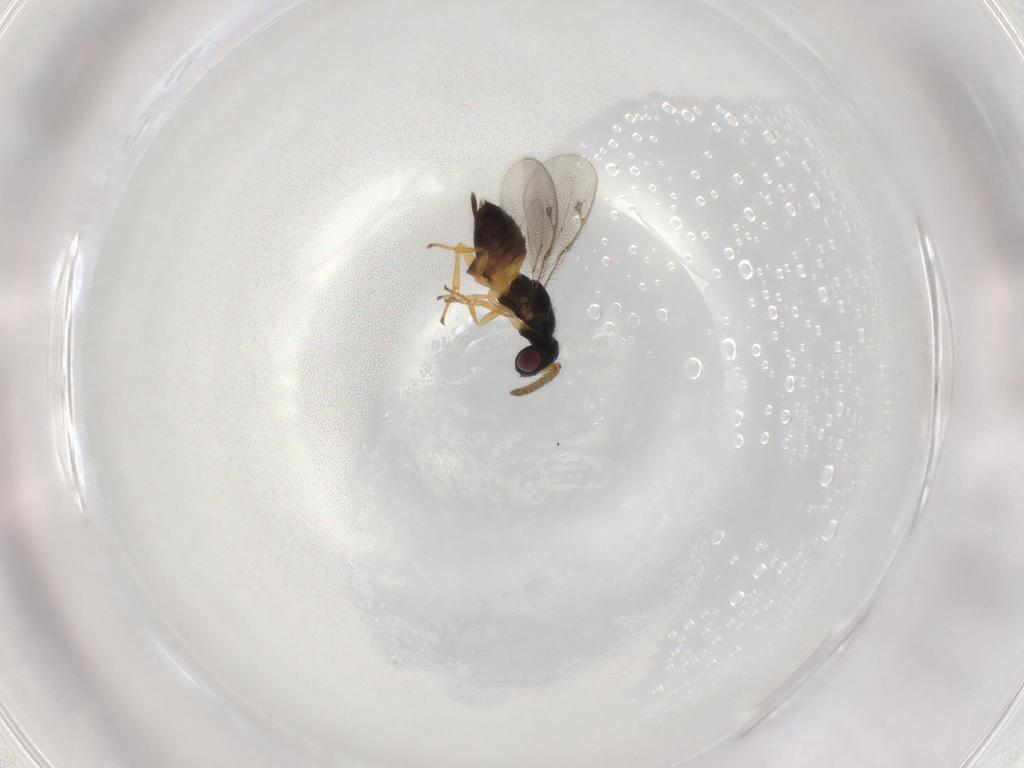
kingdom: Animalia
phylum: Arthropoda
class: Insecta
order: Hymenoptera
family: Pirenidae
